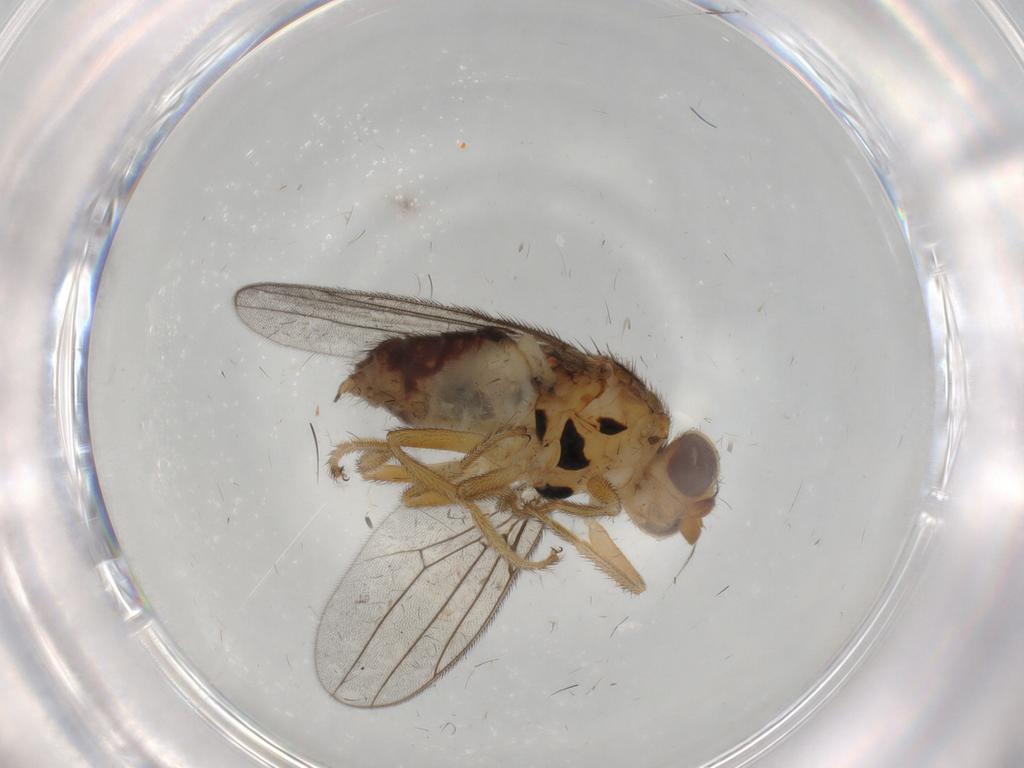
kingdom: Animalia
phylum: Arthropoda
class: Insecta
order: Diptera
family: Chloropidae
